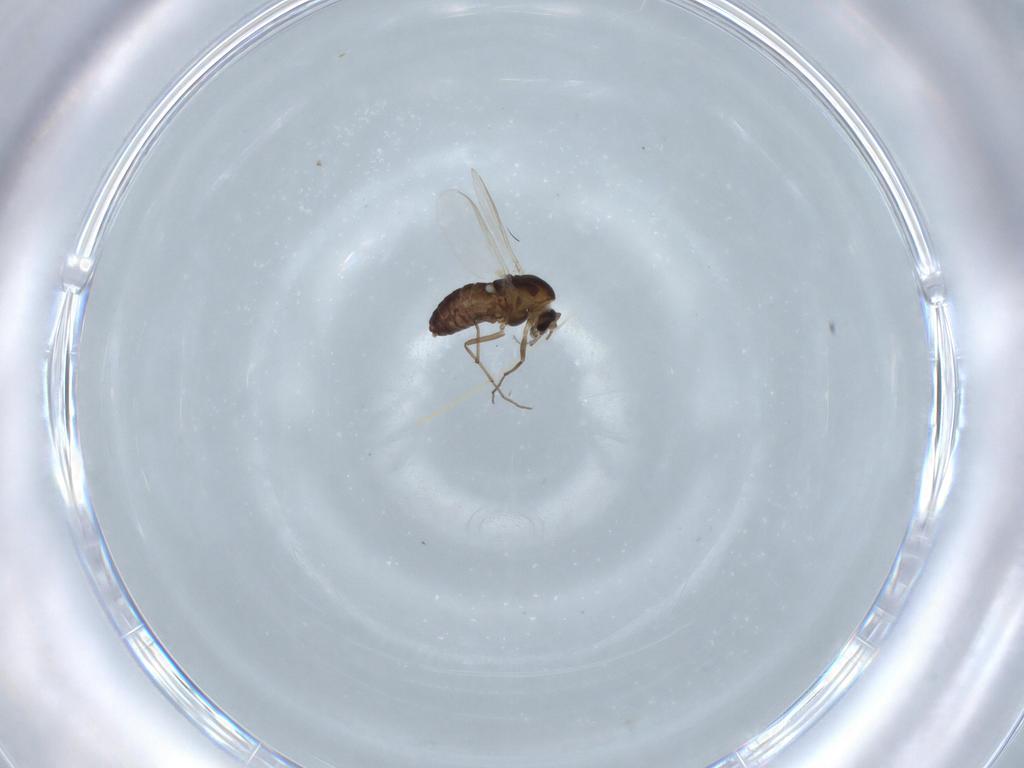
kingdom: Animalia
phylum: Arthropoda
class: Insecta
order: Diptera
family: Chironomidae
